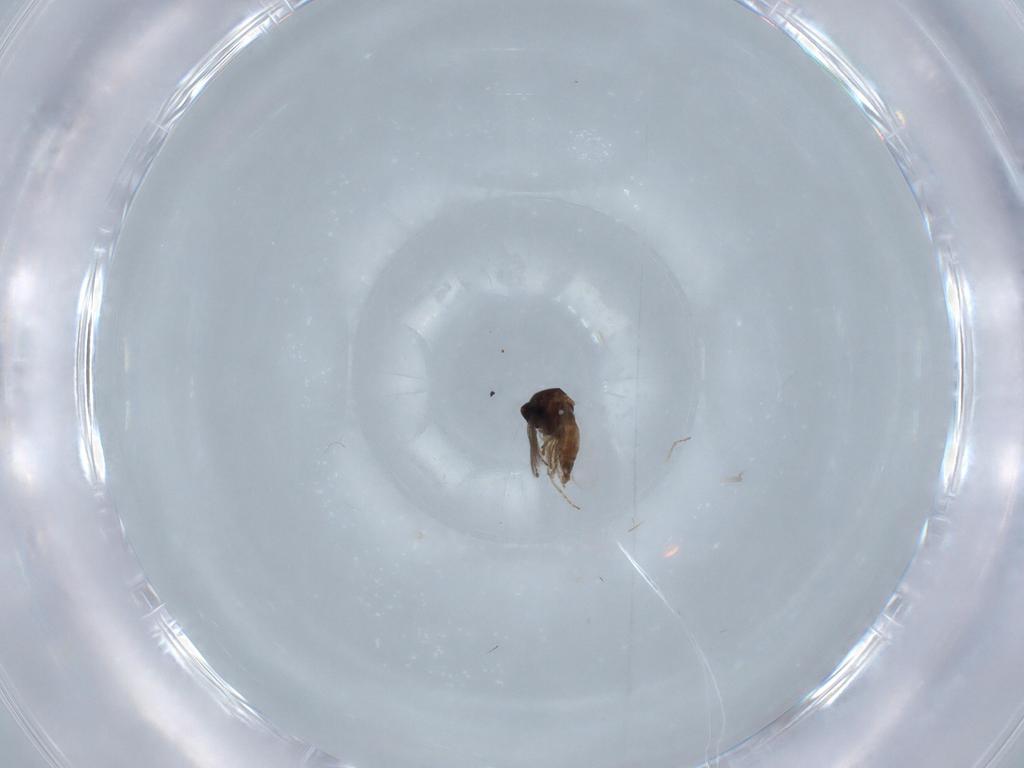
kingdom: Animalia
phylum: Arthropoda
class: Insecta
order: Diptera
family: Scatopsidae
